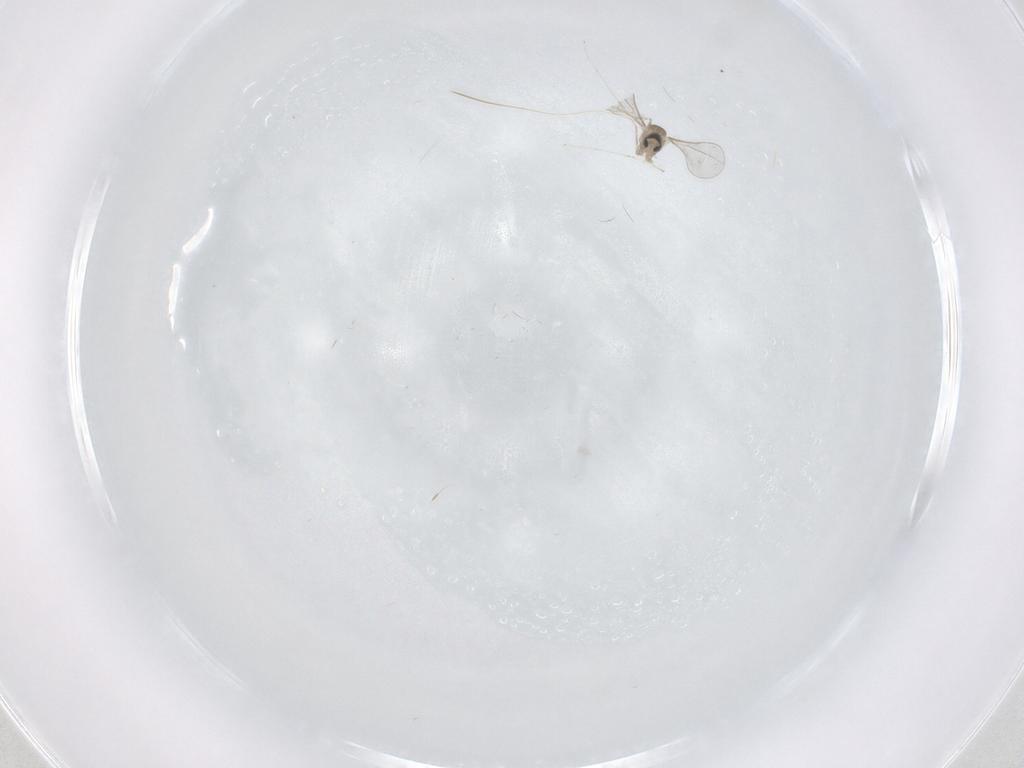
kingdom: Animalia
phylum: Arthropoda
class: Insecta
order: Diptera
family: Cecidomyiidae
